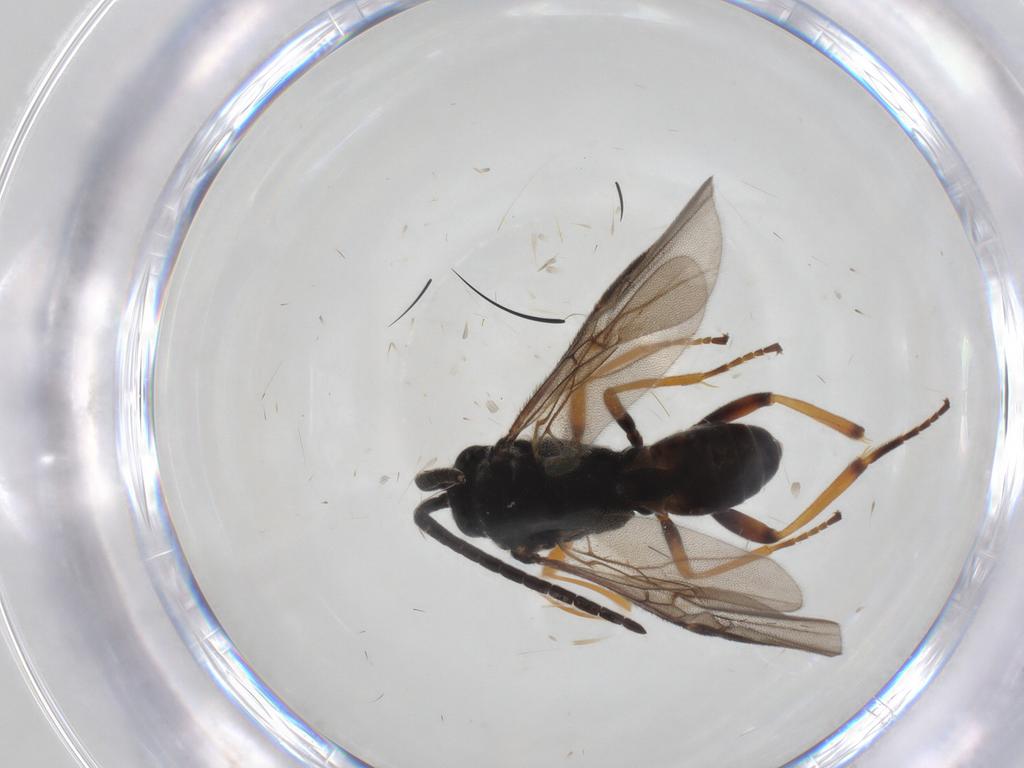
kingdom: Animalia
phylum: Arthropoda
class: Insecta
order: Hymenoptera
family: Braconidae
